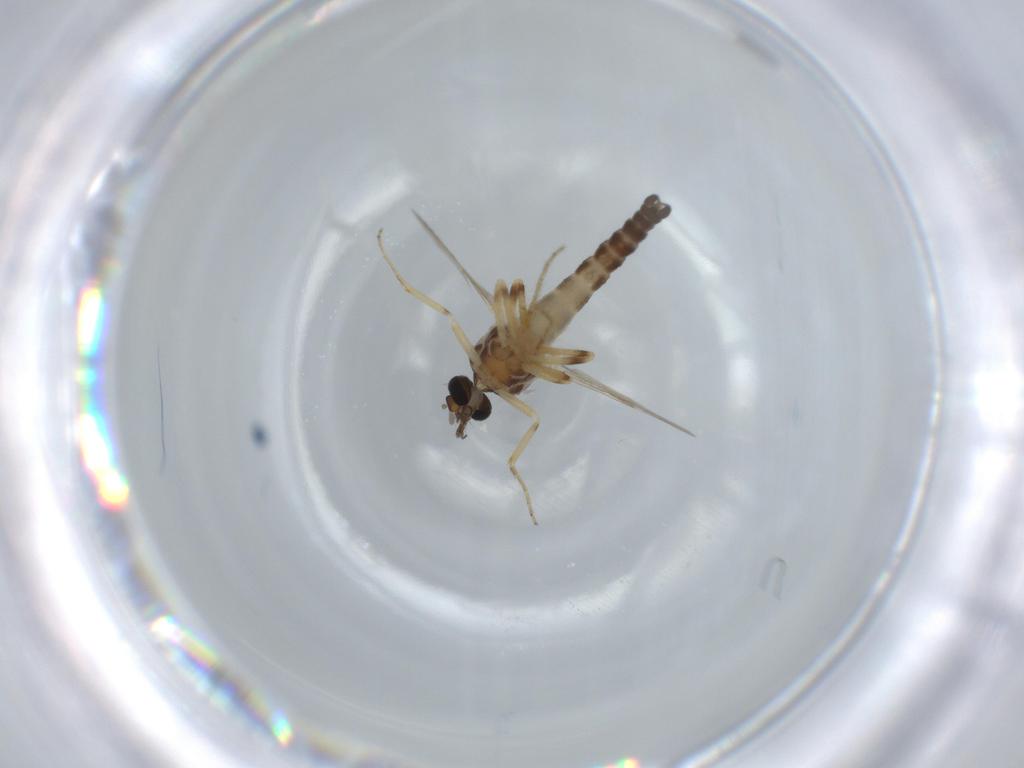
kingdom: Animalia
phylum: Arthropoda
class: Insecta
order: Diptera
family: Ceratopogonidae
